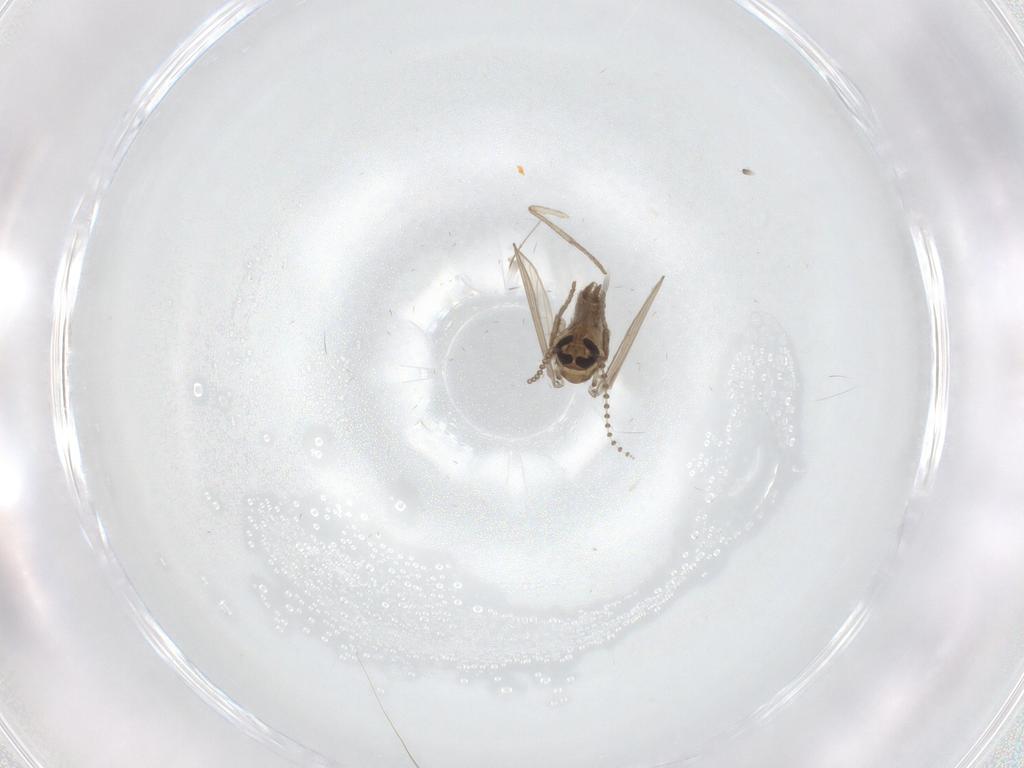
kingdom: Animalia
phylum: Arthropoda
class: Insecta
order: Diptera
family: Psychodidae
